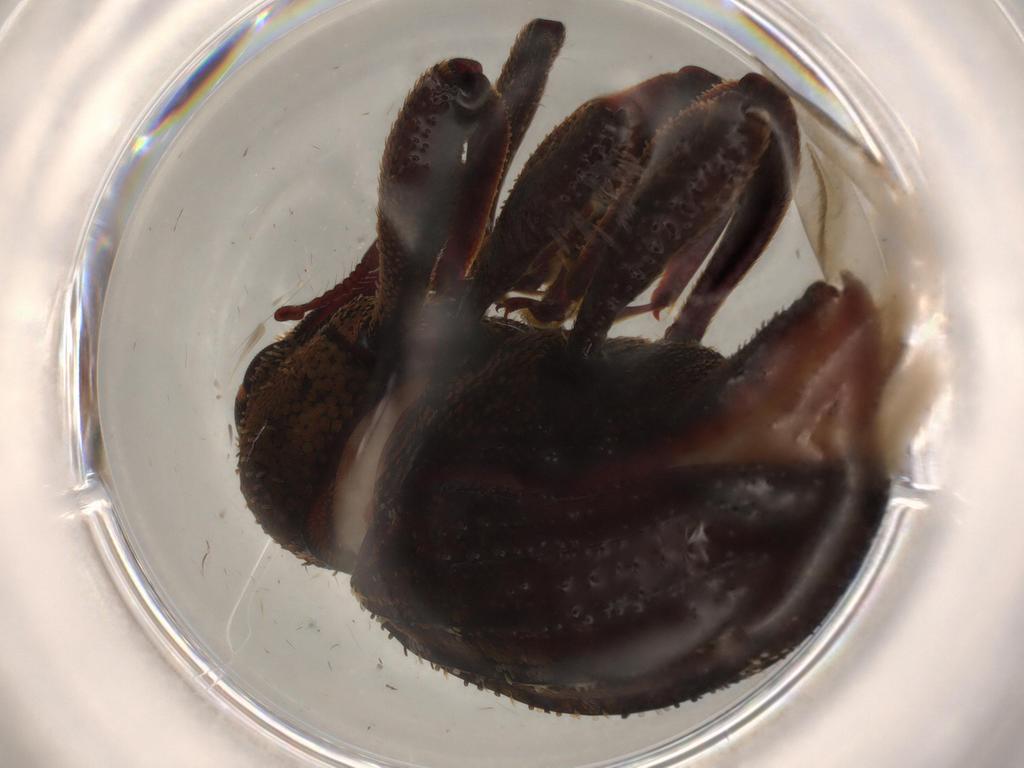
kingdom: Animalia
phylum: Arthropoda
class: Insecta
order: Coleoptera
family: Curculionidae
